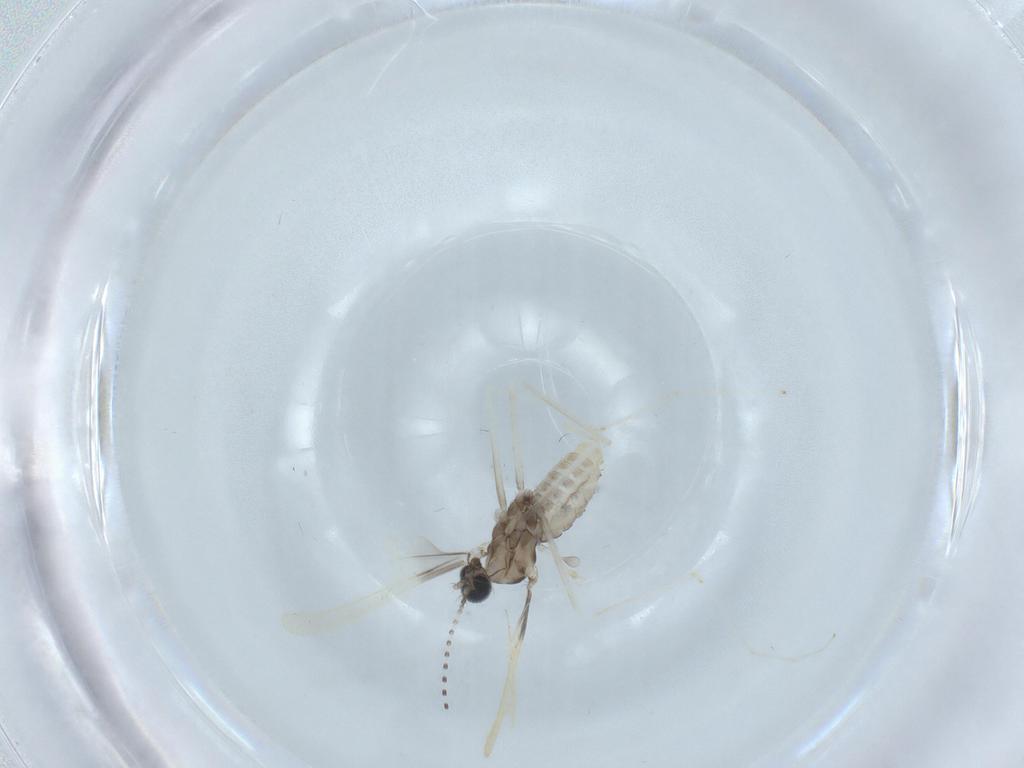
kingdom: Animalia
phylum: Arthropoda
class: Insecta
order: Diptera
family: Cecidomyiidae
